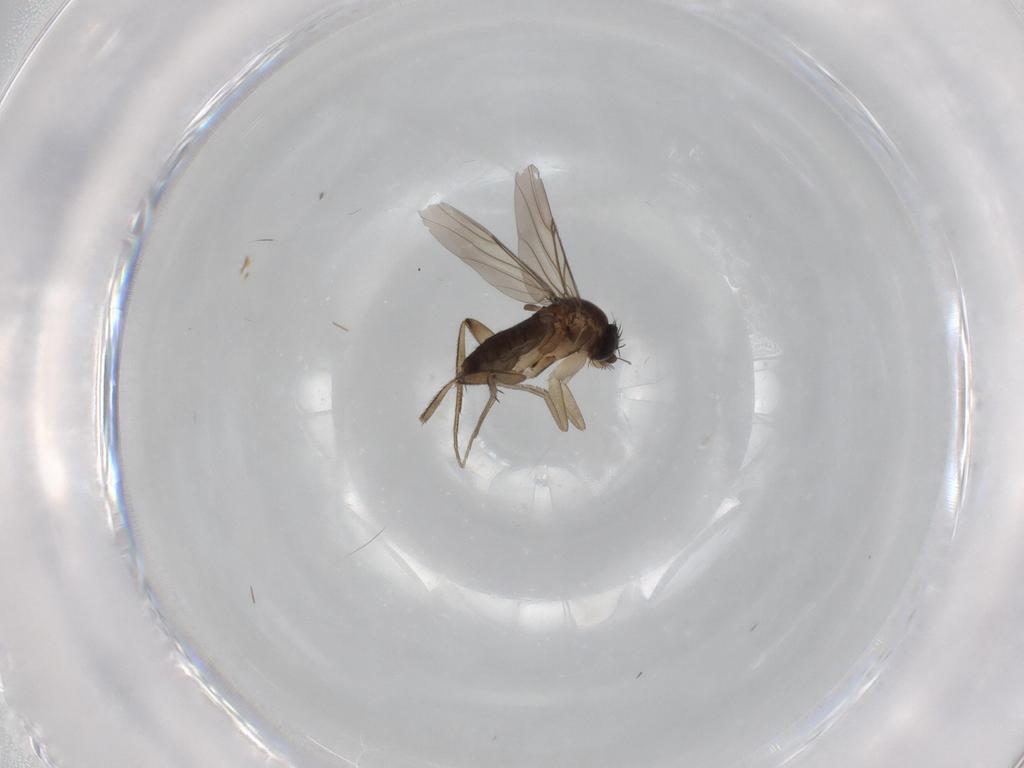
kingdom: Animalia
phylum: Arthropoda
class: Insecta
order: Diptera
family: Phoridae
